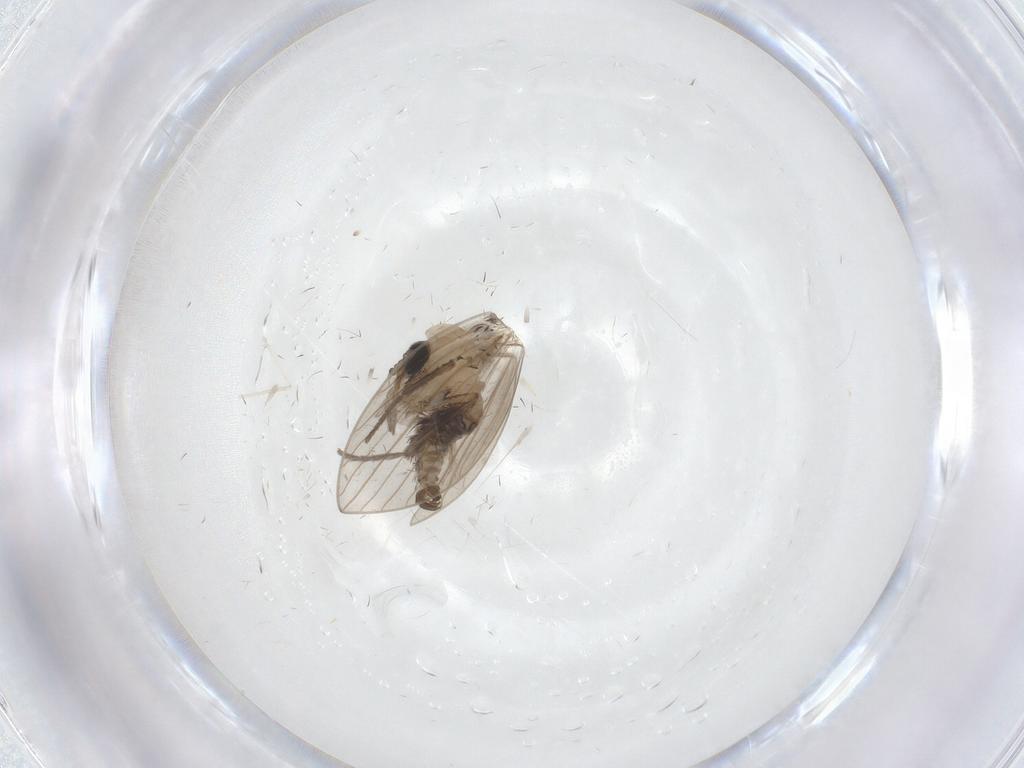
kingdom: Animalia
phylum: Arthropoda
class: Insecta
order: Diptera
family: Psychodidae
